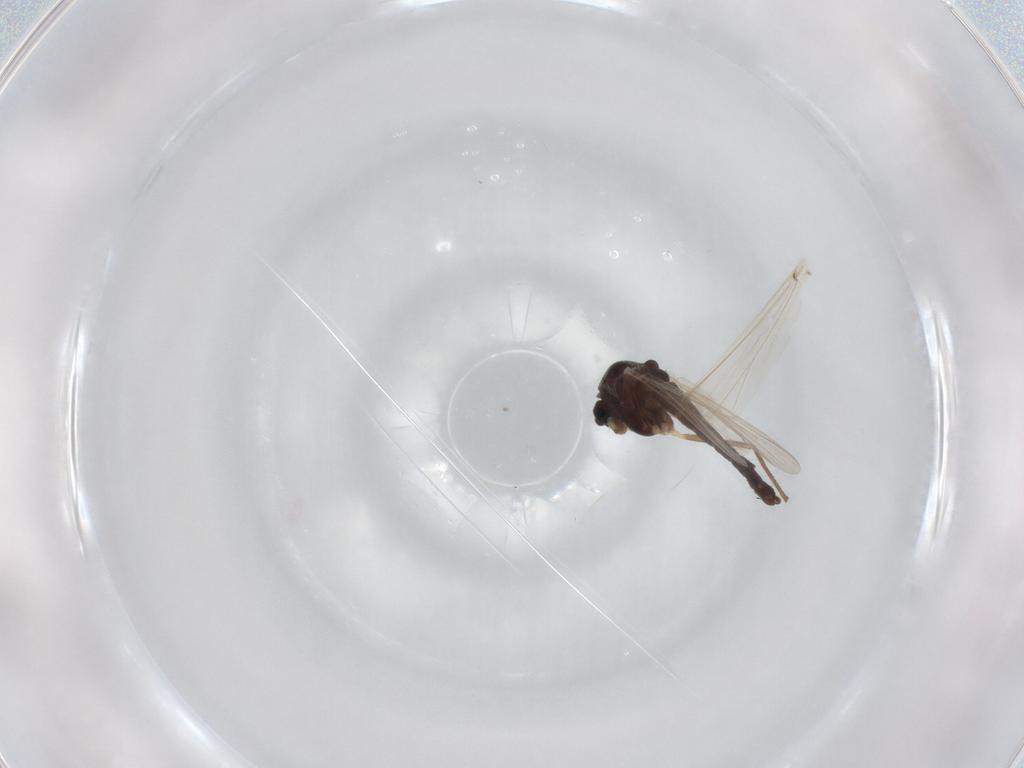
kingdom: Animalia
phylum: Arthropoda
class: Insecta
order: Diptera
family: Chironomidae
